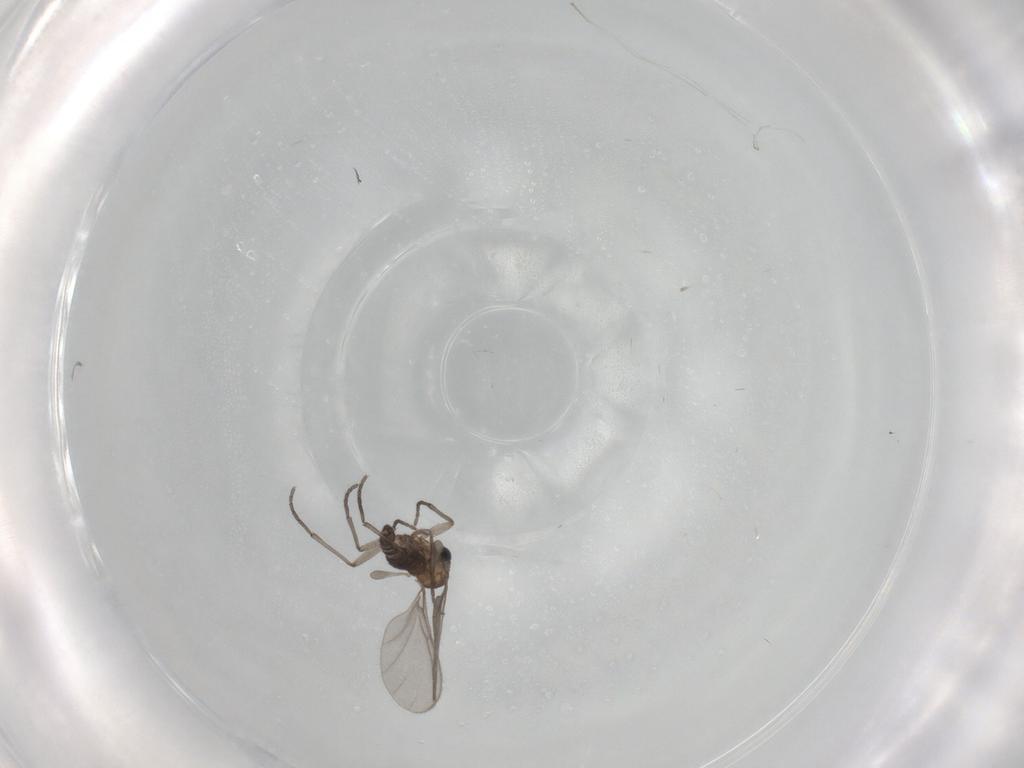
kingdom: Animalia
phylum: Arthropoda
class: Insecta
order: Diptera
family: Sciaridae
